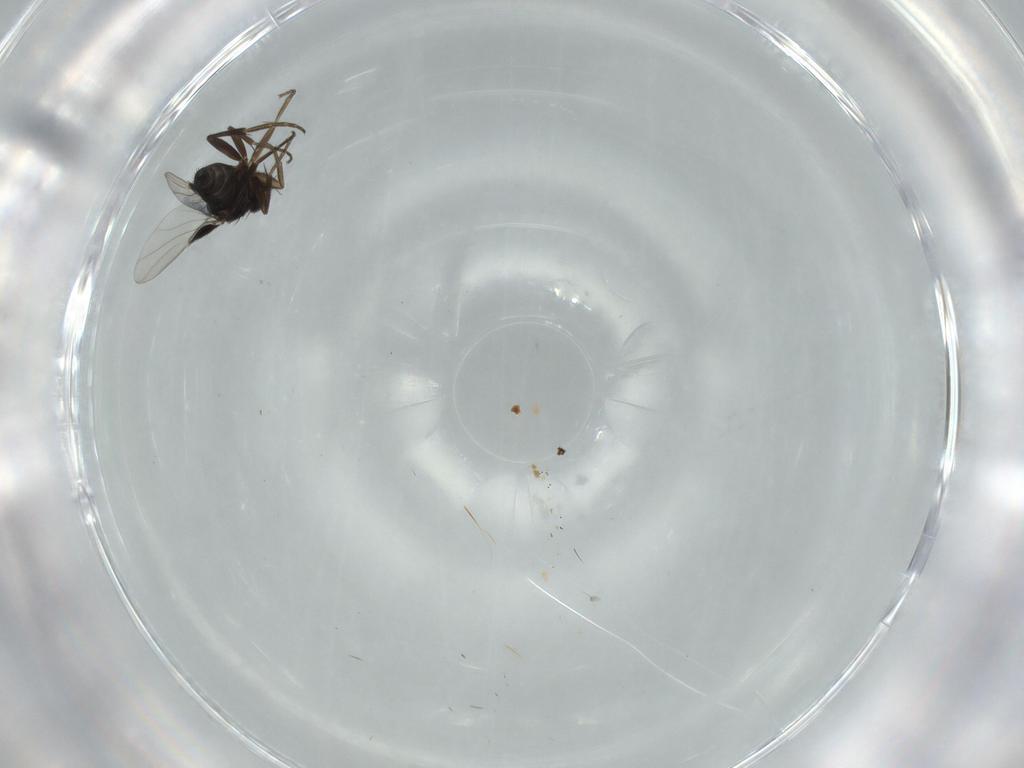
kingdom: Animalia
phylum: Arthropoda
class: Insecta
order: Diptera
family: Phoridae
